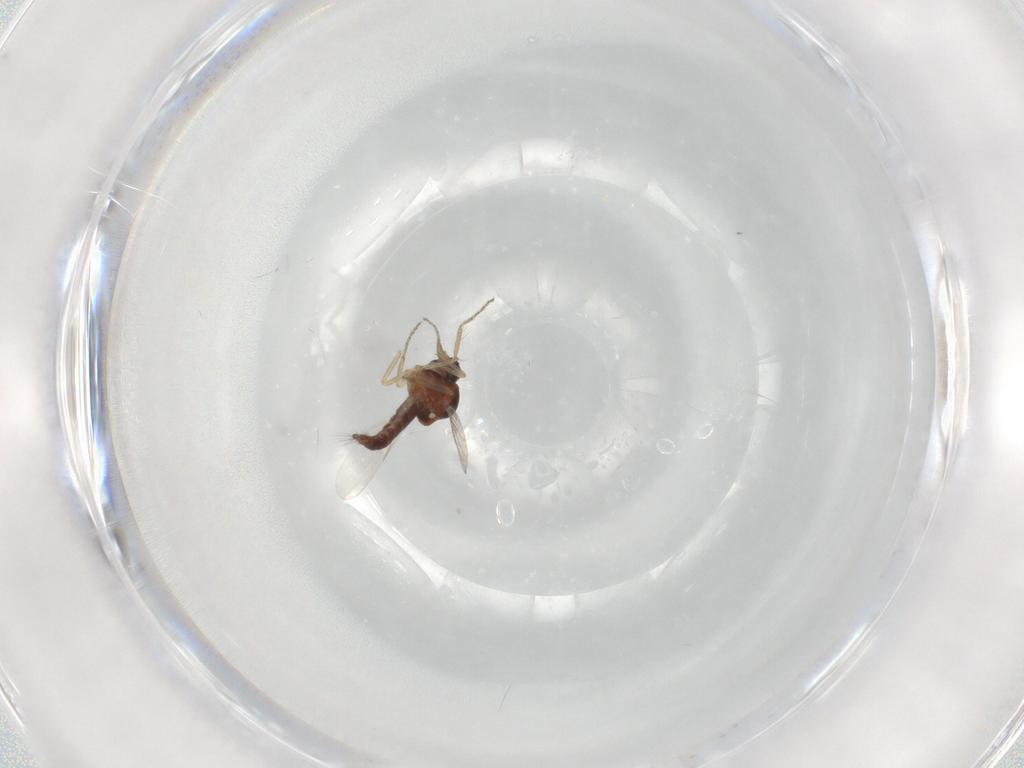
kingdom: Animalia
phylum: Arthropoda
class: Insecta
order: Diptera
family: Ceratopogonidae
